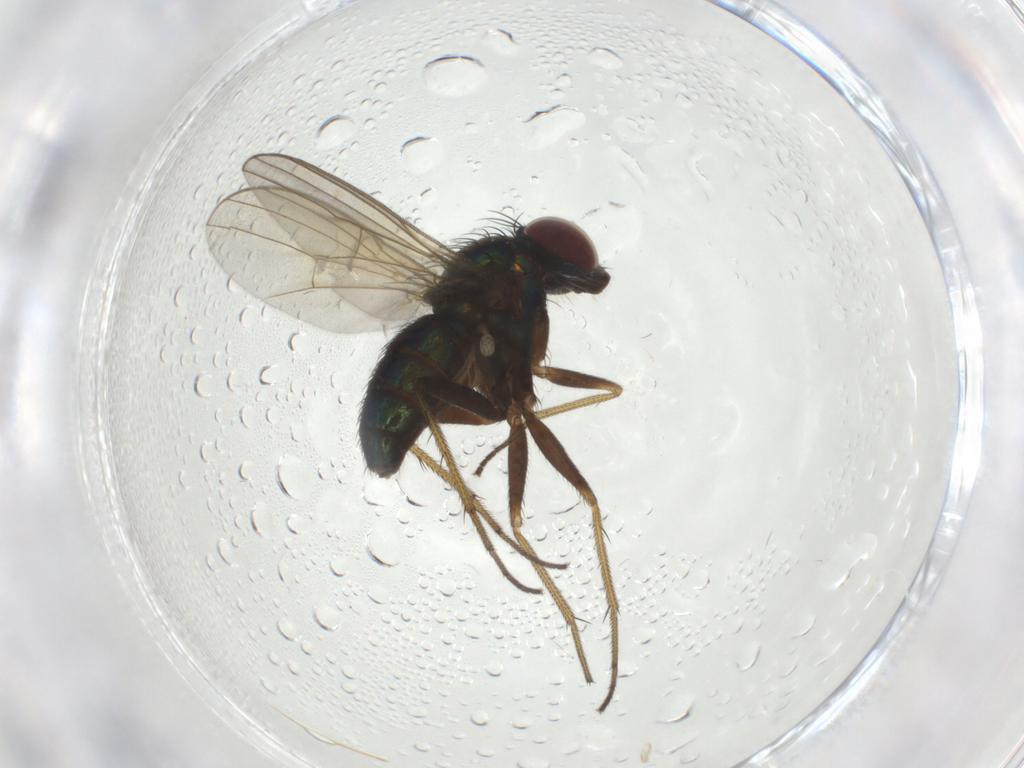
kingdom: Animalia
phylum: Arthropoda
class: Insecta
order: Diptera
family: Dolichopodidae
